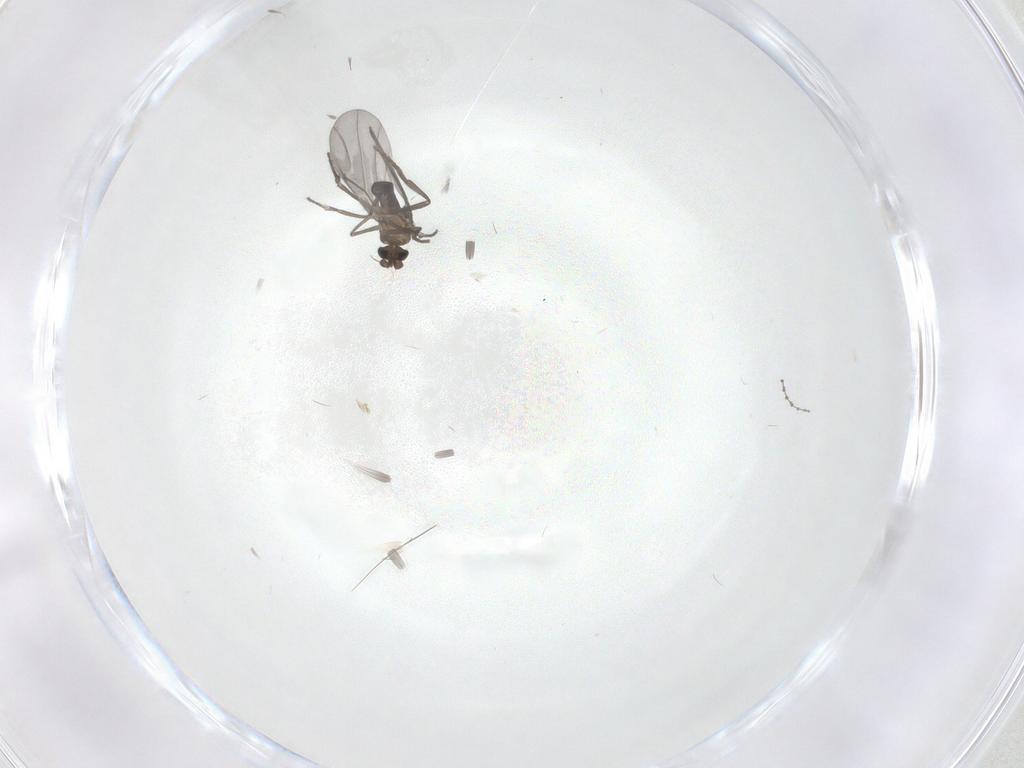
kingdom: Animalia
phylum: Arthropoda
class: Insecta
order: Diptera
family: Phoridae
